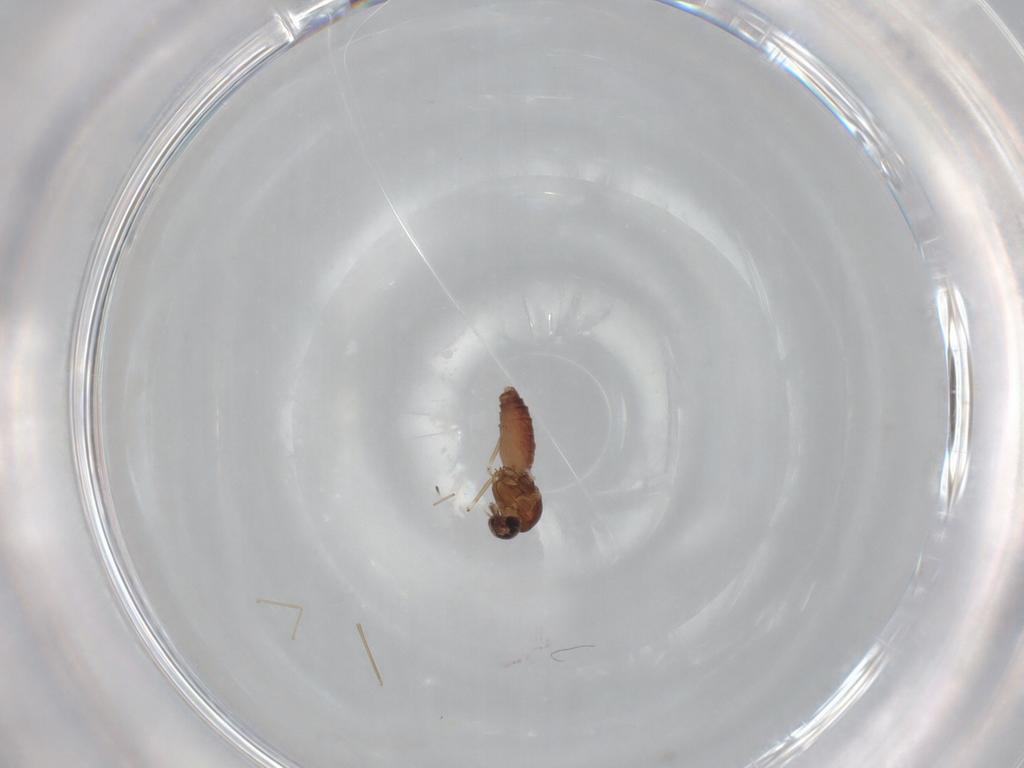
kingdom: Animalia
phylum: Arthropoda
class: Insecta
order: Diptera
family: Ceratopogonidae
